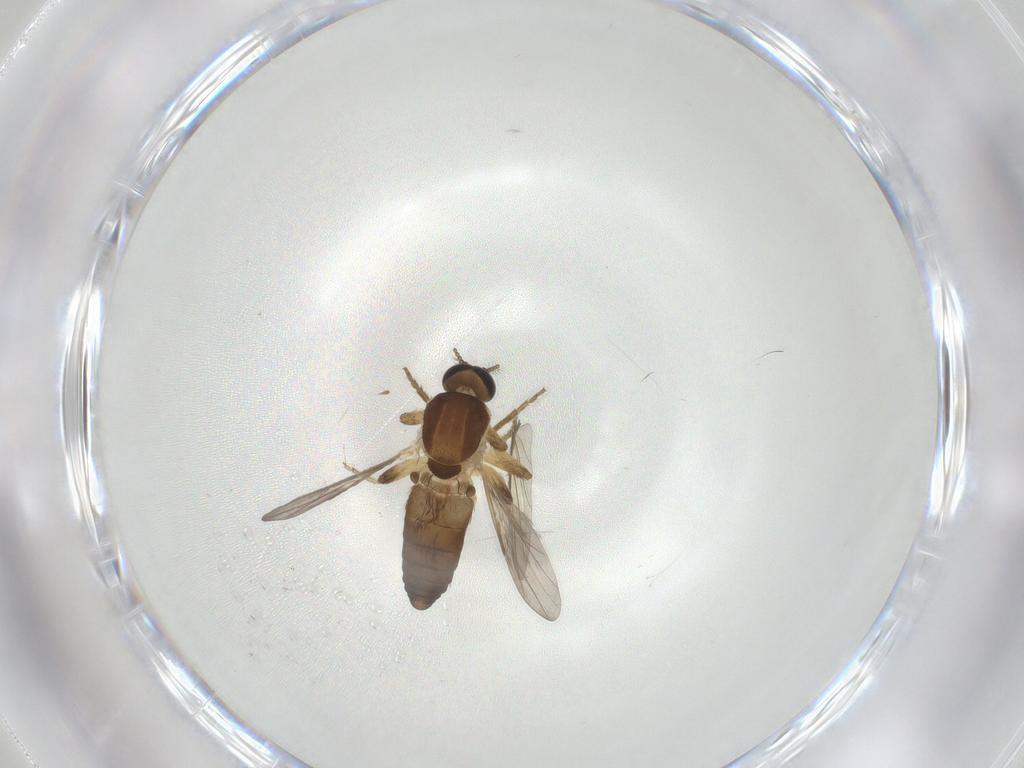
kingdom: Animalia
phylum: Arthropoda
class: Insecta
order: Diptera
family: Ceratopogonidae
